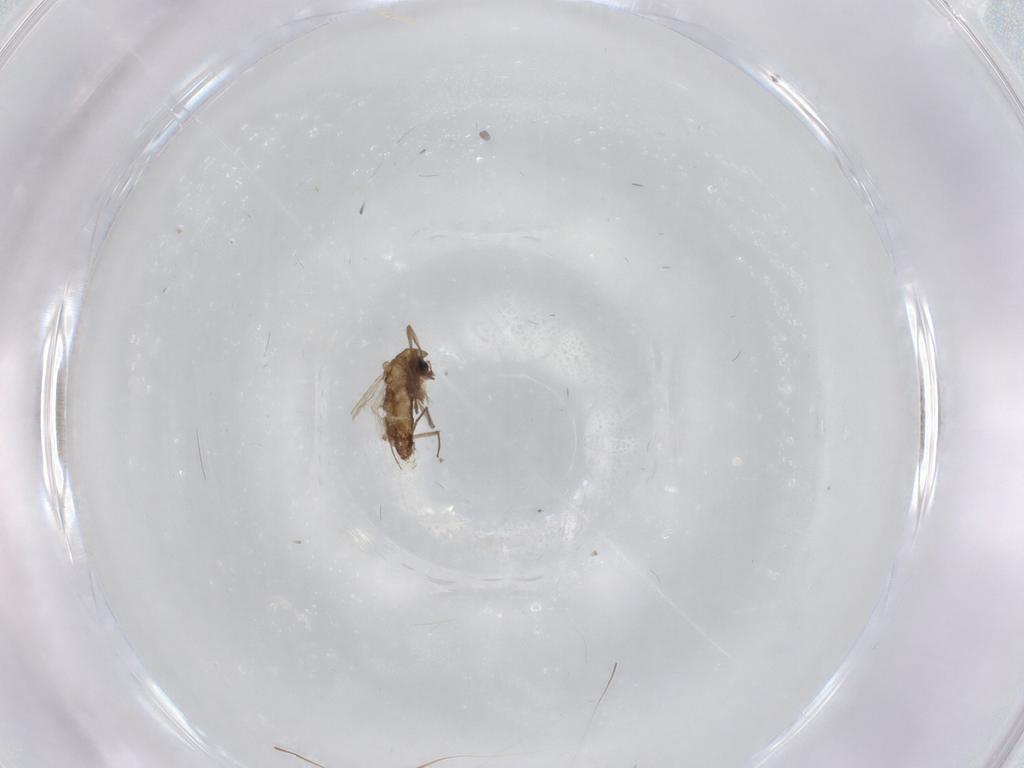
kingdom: Animalia
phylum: Arthropoda
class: Insecta
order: Diptera
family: Chironomidae
